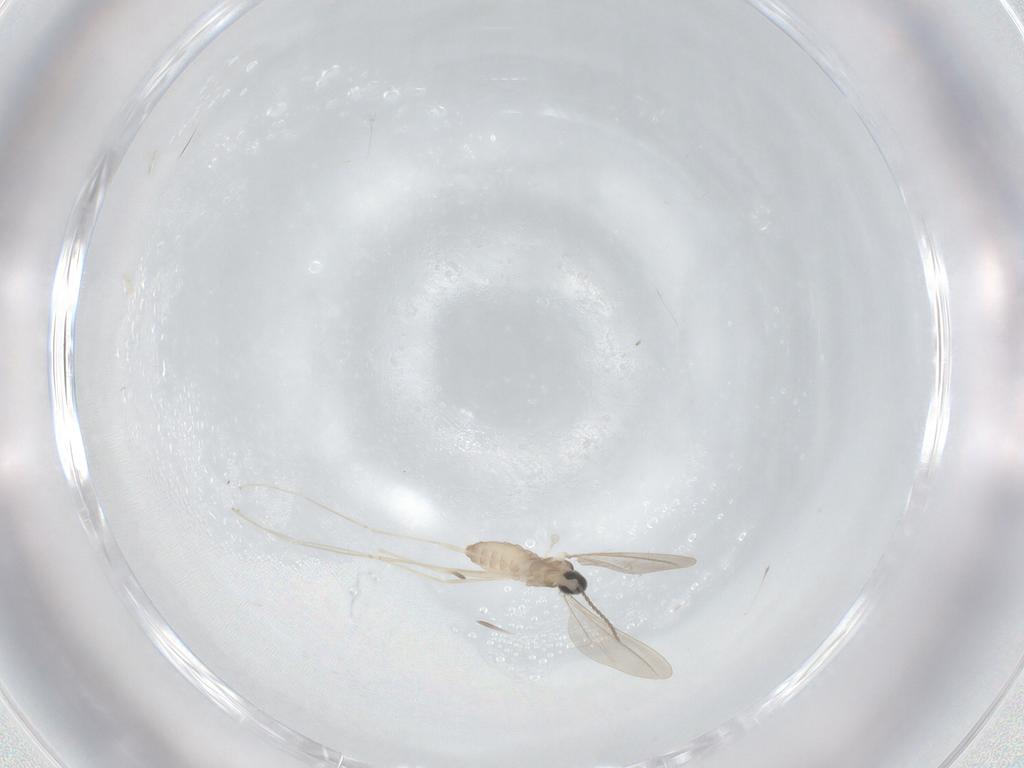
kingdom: Animalia
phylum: Arthropoda
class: Insecta
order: Diptera
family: Cecidomyiidae
